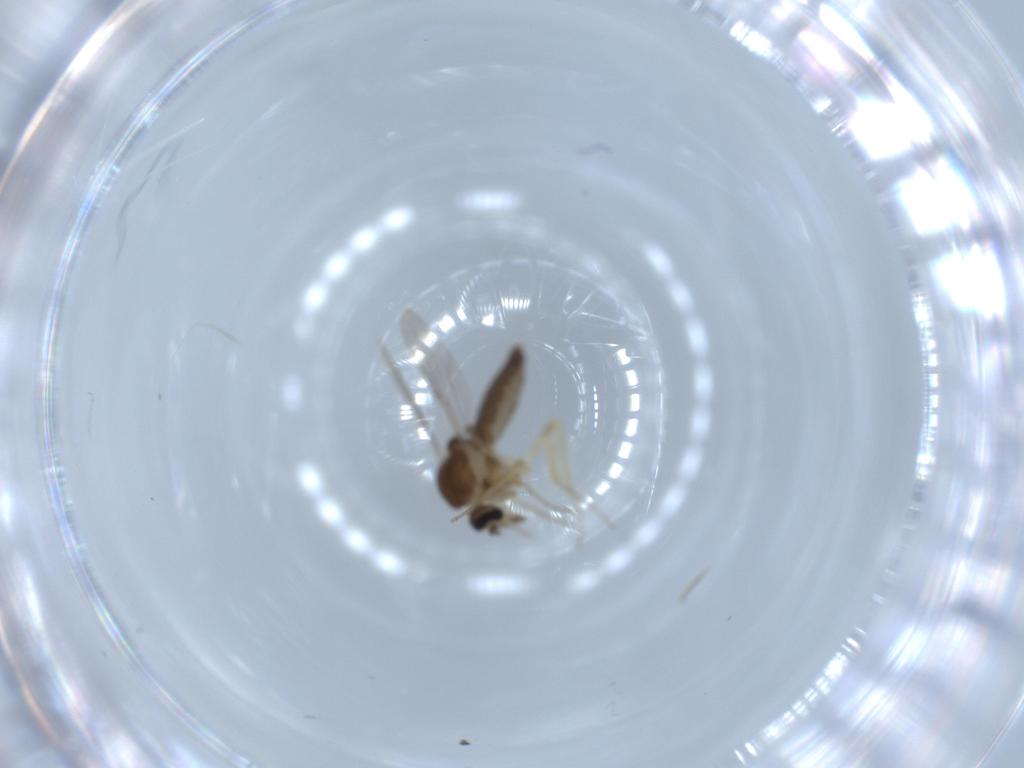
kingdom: Animalia
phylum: Arthropoda
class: Insecta
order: Diptera
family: Ceratopogonidae
